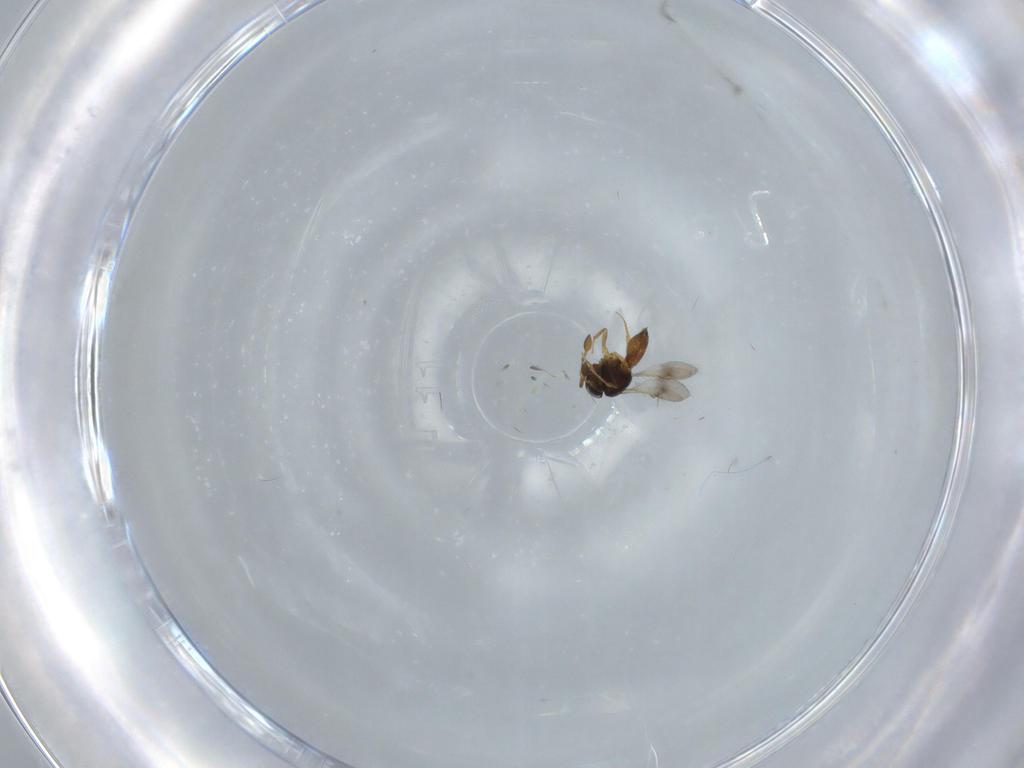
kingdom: Animalia
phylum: Arthropoda
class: Insecta
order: Hymenoptera
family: Scelionidae
